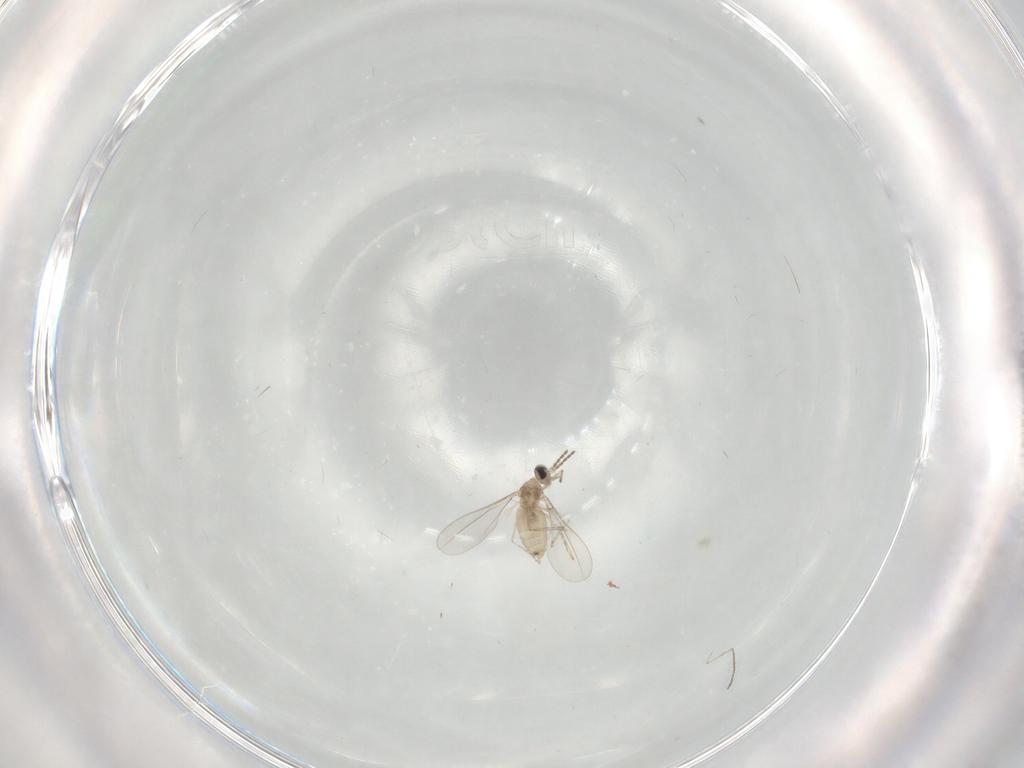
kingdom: Animalia
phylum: Arthropoda
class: Insecta
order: Diptera
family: Cecidomyiidae
